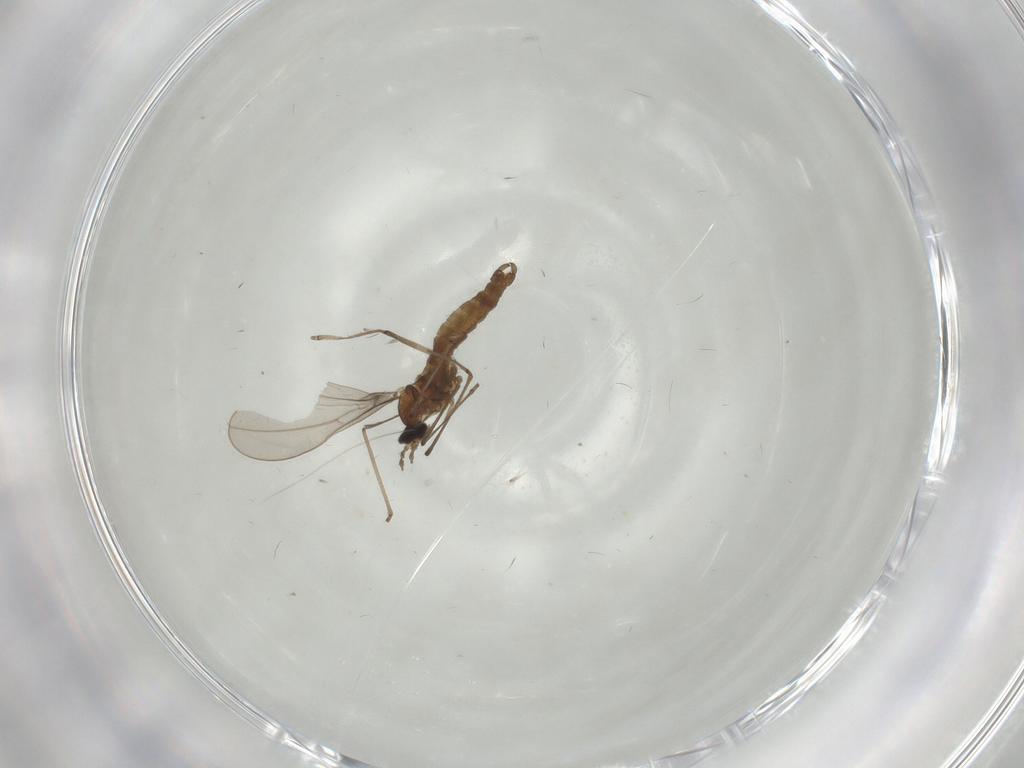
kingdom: Animalia
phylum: Arthropoda
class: Insecta
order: Diptera
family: Cecidomyiidae
